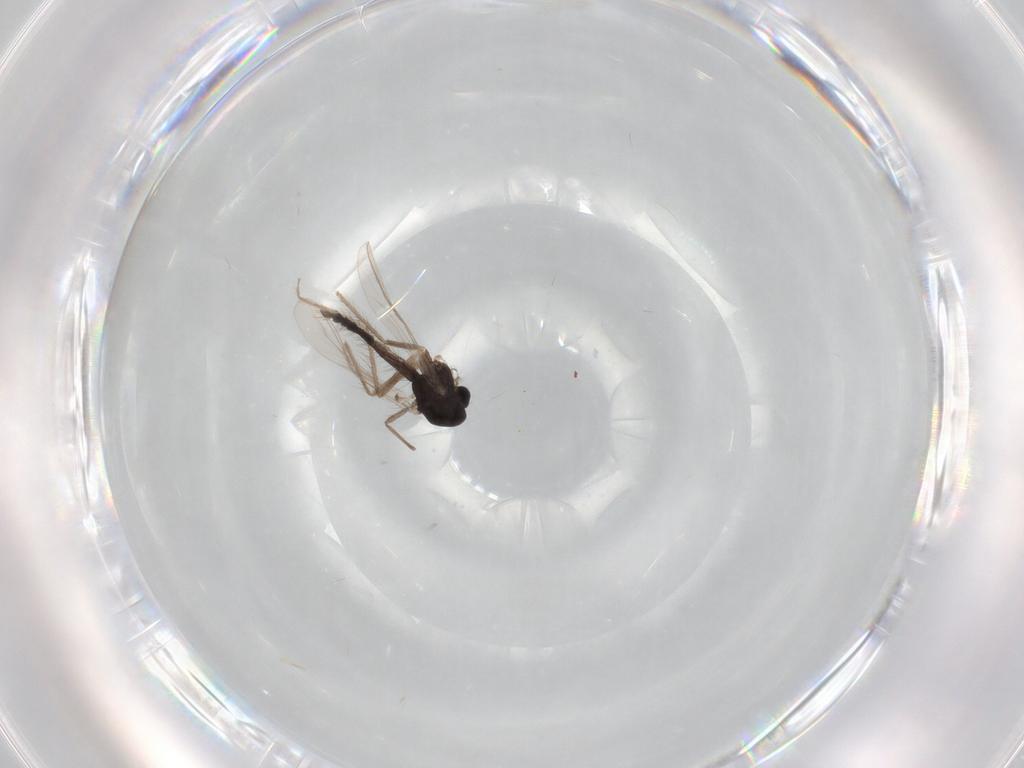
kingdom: Animalia
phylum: Arthropoda
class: Insecta
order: Diptera
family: Chironomidae
